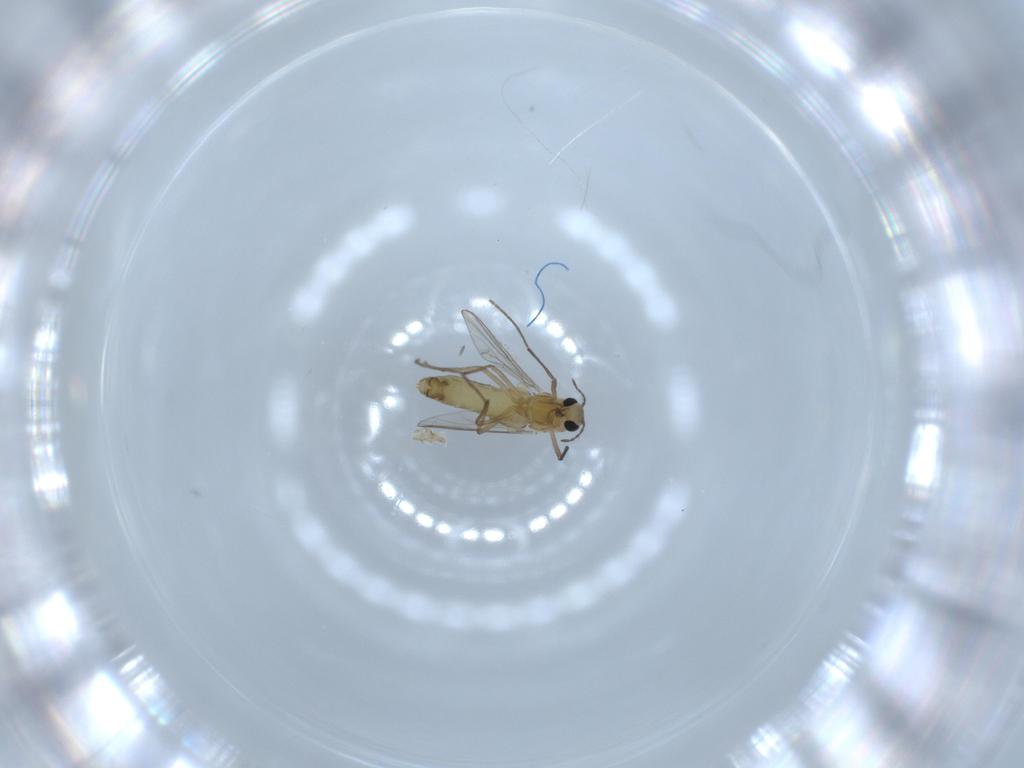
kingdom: Animalia
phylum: Arthropoda
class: Insecta
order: Diptera
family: Chironomidae
